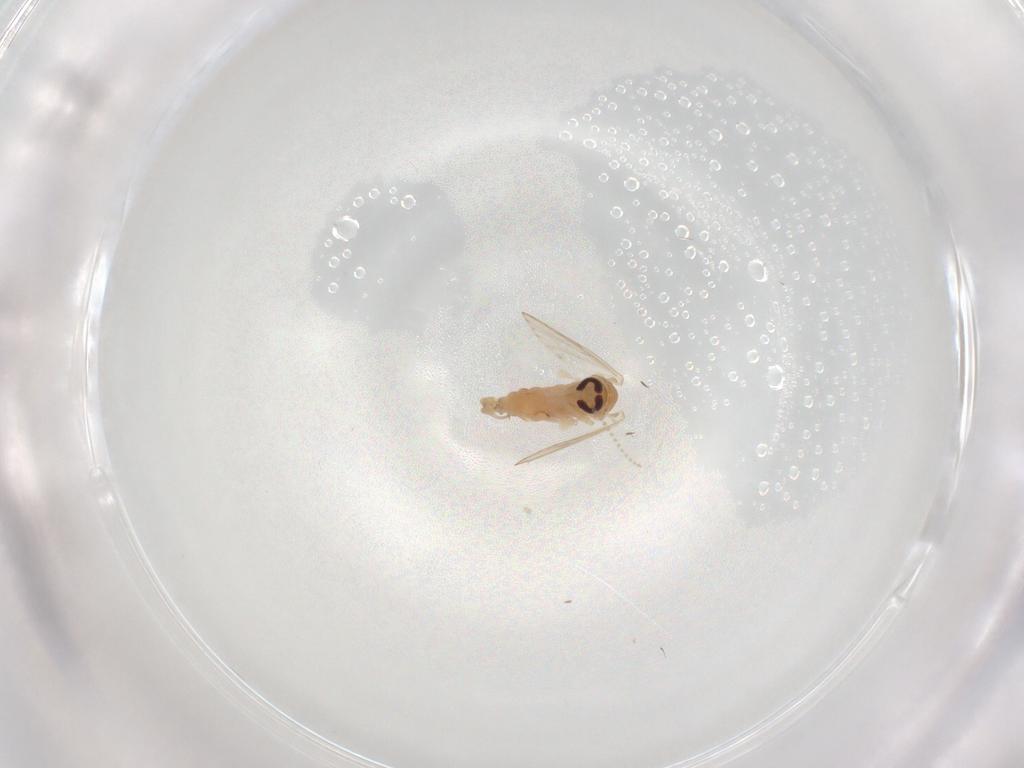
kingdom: Animalia
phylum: Arthropoda
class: Insecta
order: Diptera
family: Psychodidae
